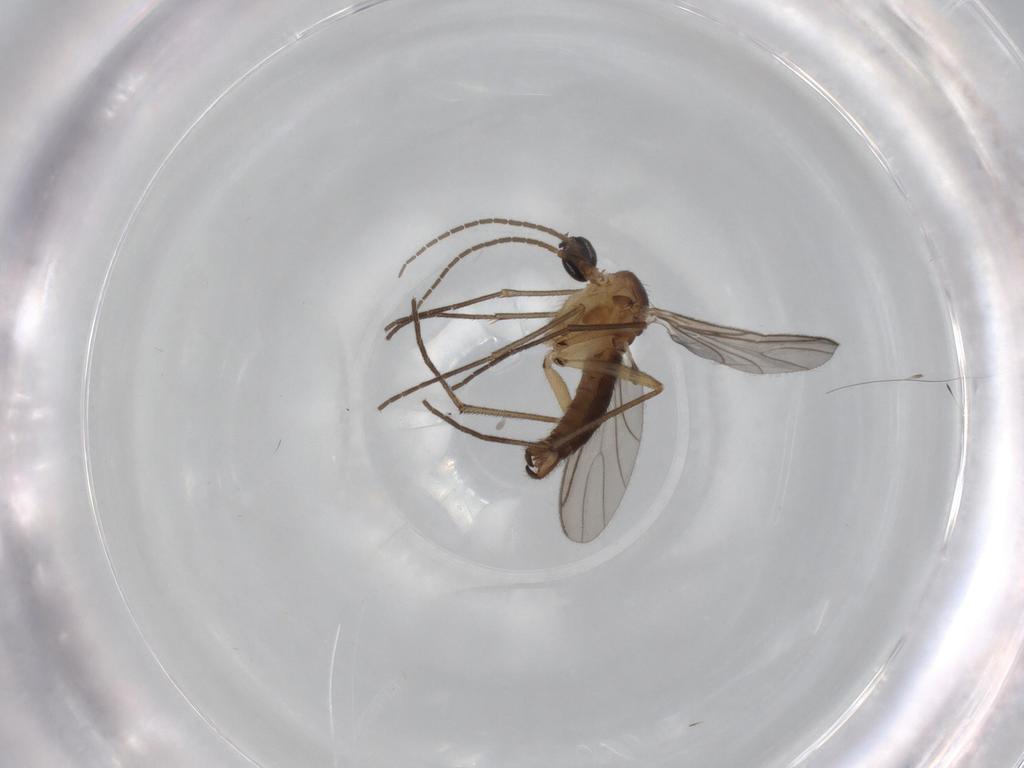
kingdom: Animalia
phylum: Arthropoda
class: Insecta
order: Diptera
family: Sciaridae
